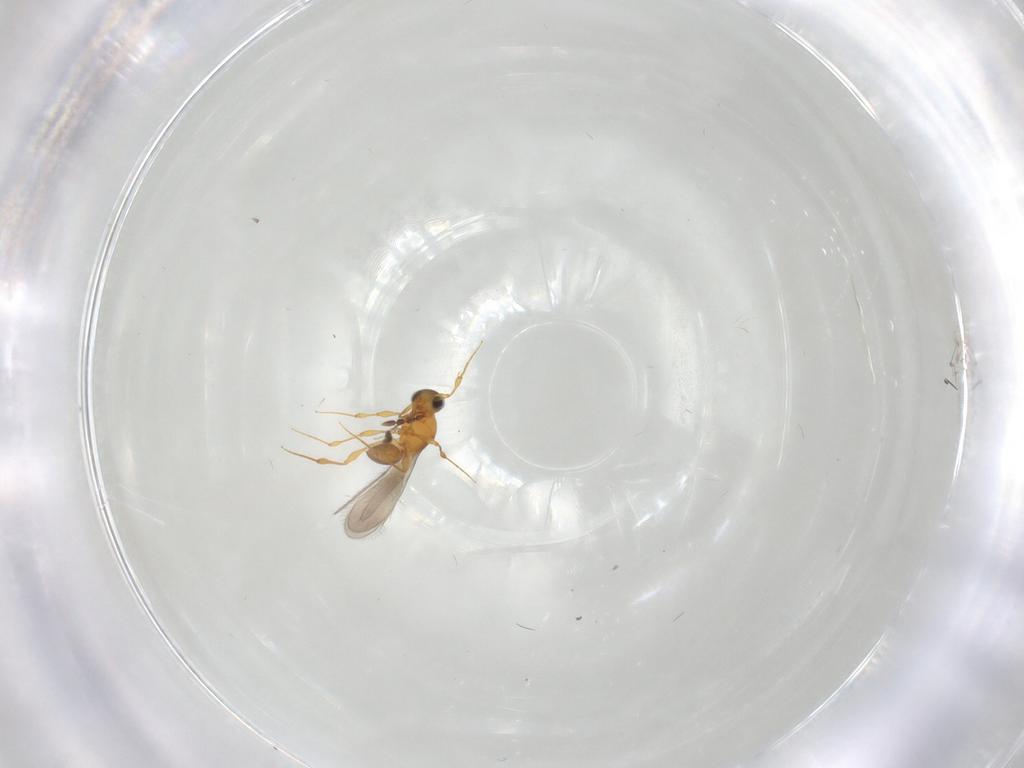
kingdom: Animalia
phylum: Arthropoda
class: Insecta
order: Hymenoptera
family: Platygastridae
